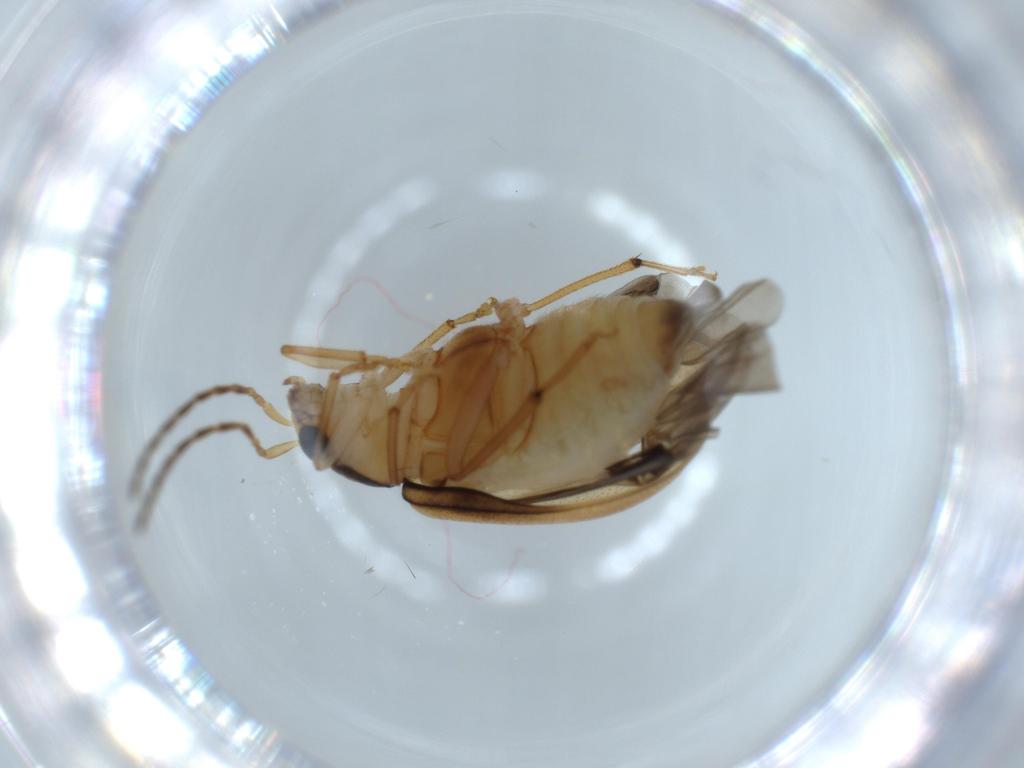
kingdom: Animalia
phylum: Arthropoda
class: Insecta
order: Coleoptera
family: Chrysomelidae
